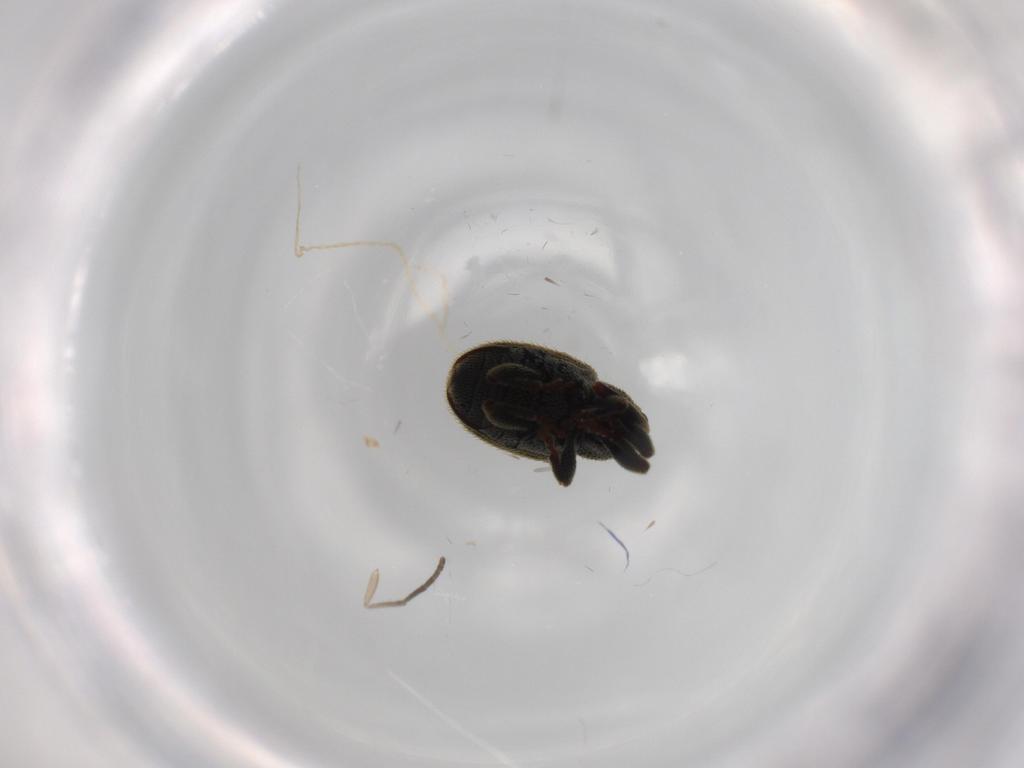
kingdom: Animalia
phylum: Arthropoda
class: Insecta
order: Coleoptera
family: Curculionidae
